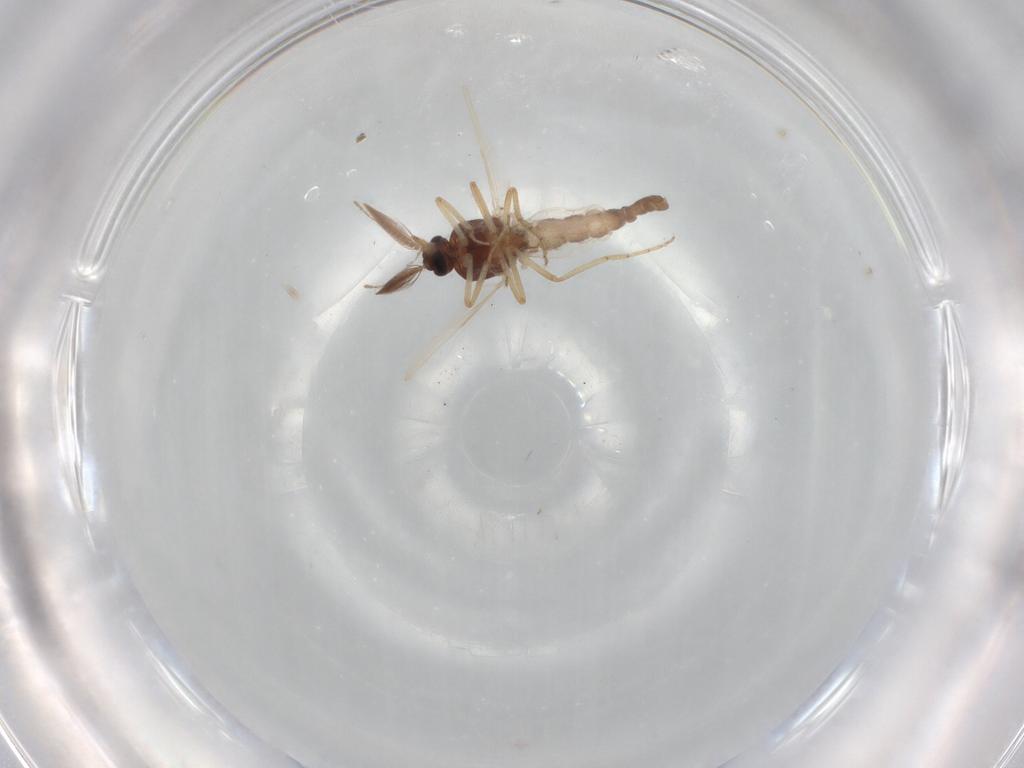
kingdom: Animalia
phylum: Arthropoda
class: Insecta
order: Diptera
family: Ceratopogonidae
